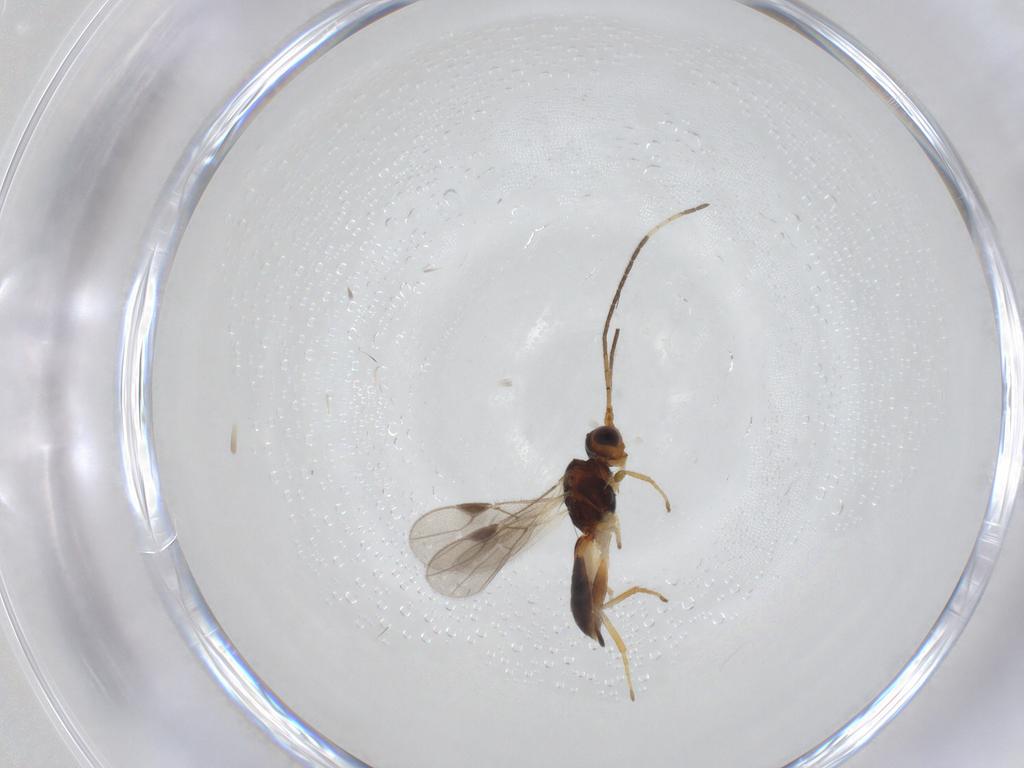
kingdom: Animalia
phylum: Arthropoda
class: Insecta
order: Hymenoptera
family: Braconidae
